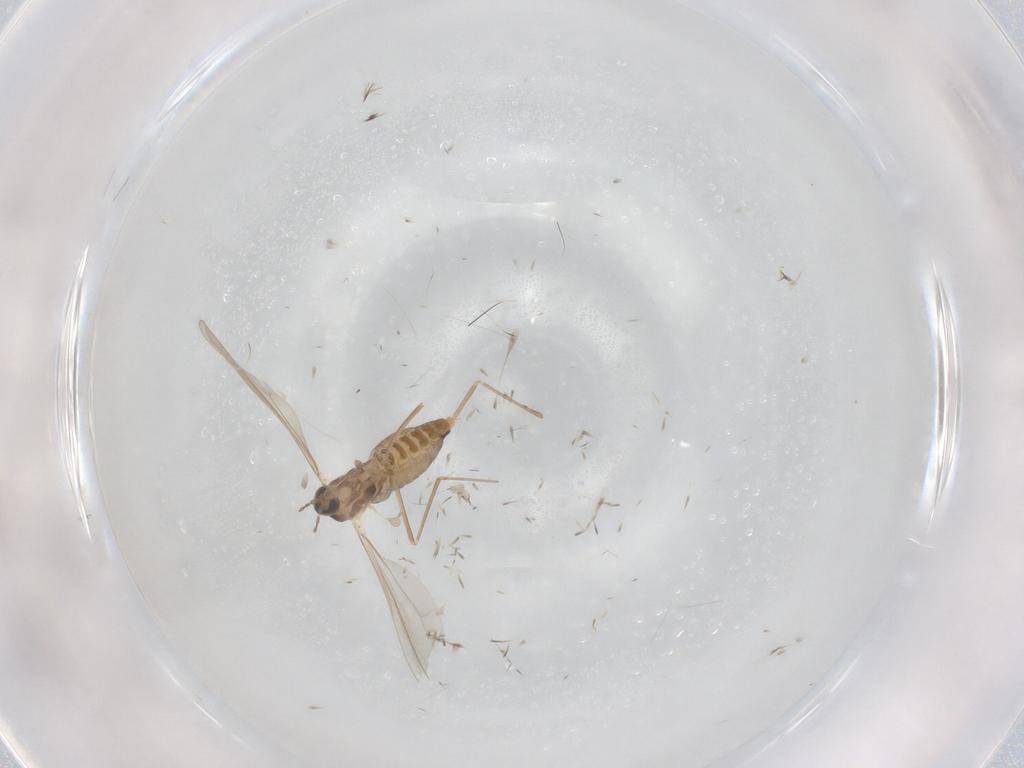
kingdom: Animalia
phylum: Arthropoda
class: Insecta
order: Diptera
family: Cecidomyiidae
